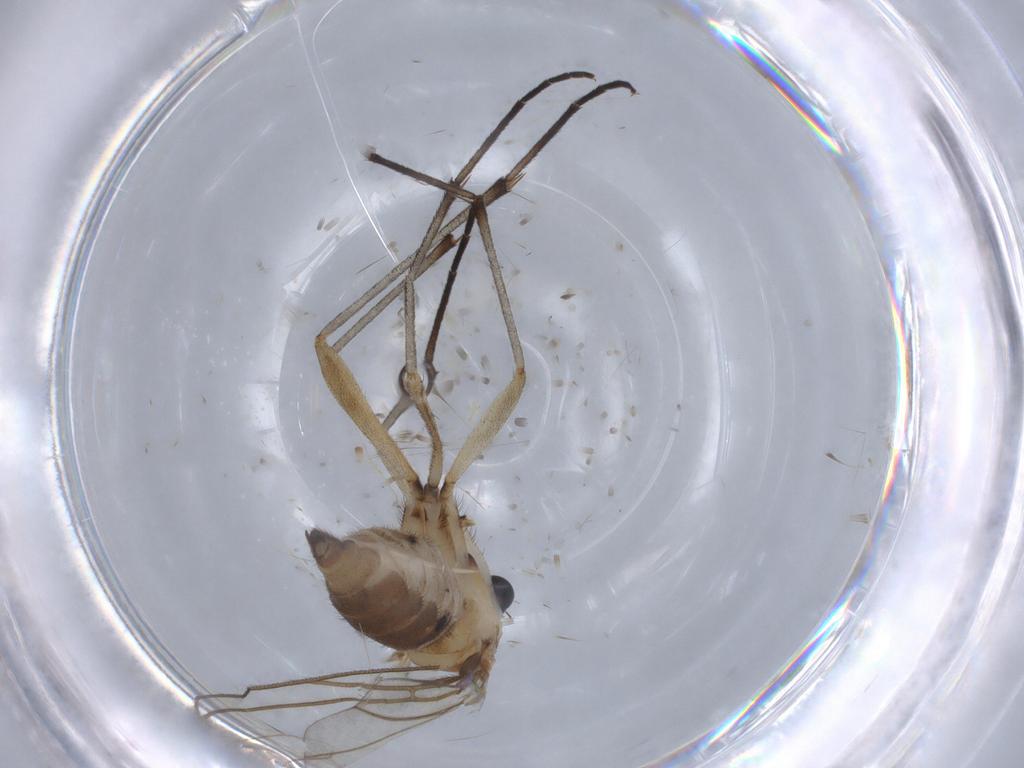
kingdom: Animalia
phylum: Arthropoda
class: Insecta
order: Diptera
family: Sciaridae
